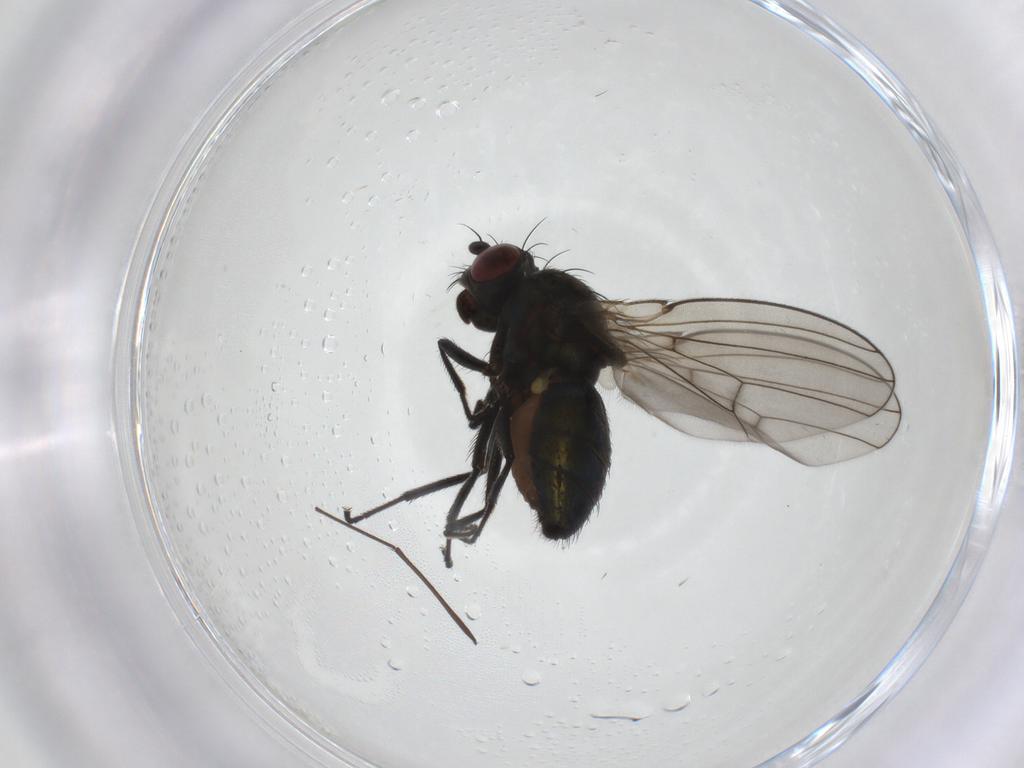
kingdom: Animalia
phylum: Arthropoda
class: Insecta
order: Diptera
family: Ephydridae
